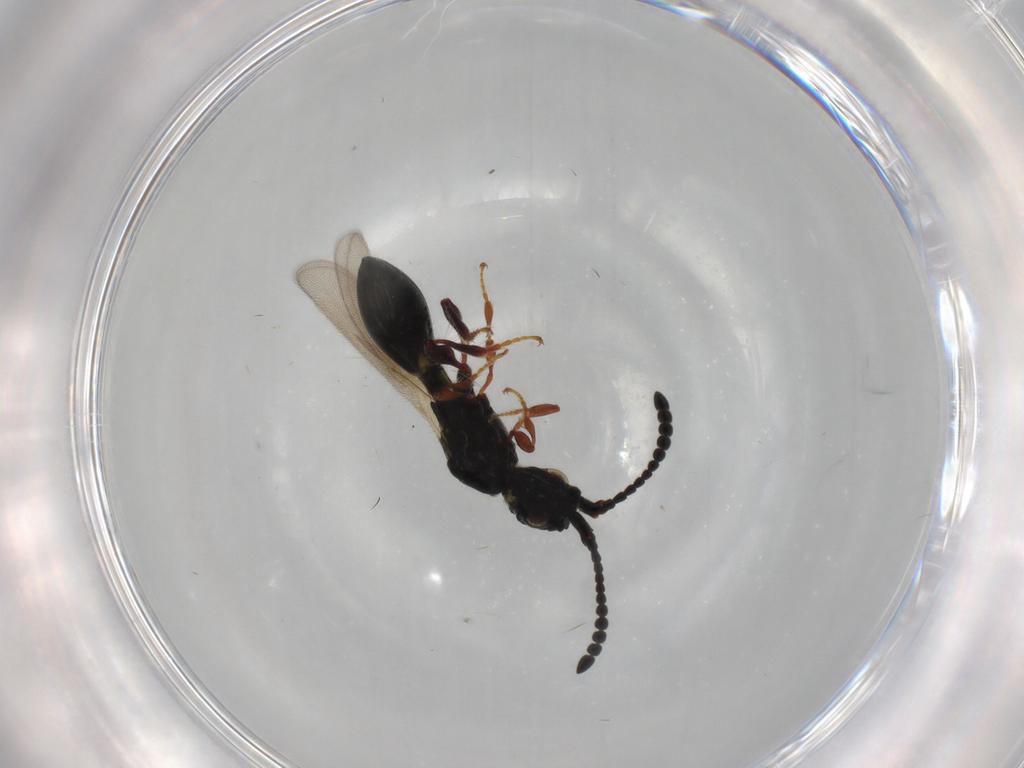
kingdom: Animalia
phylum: Arthropoda
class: Insecta
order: Hymenoptera
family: Diapriidae
